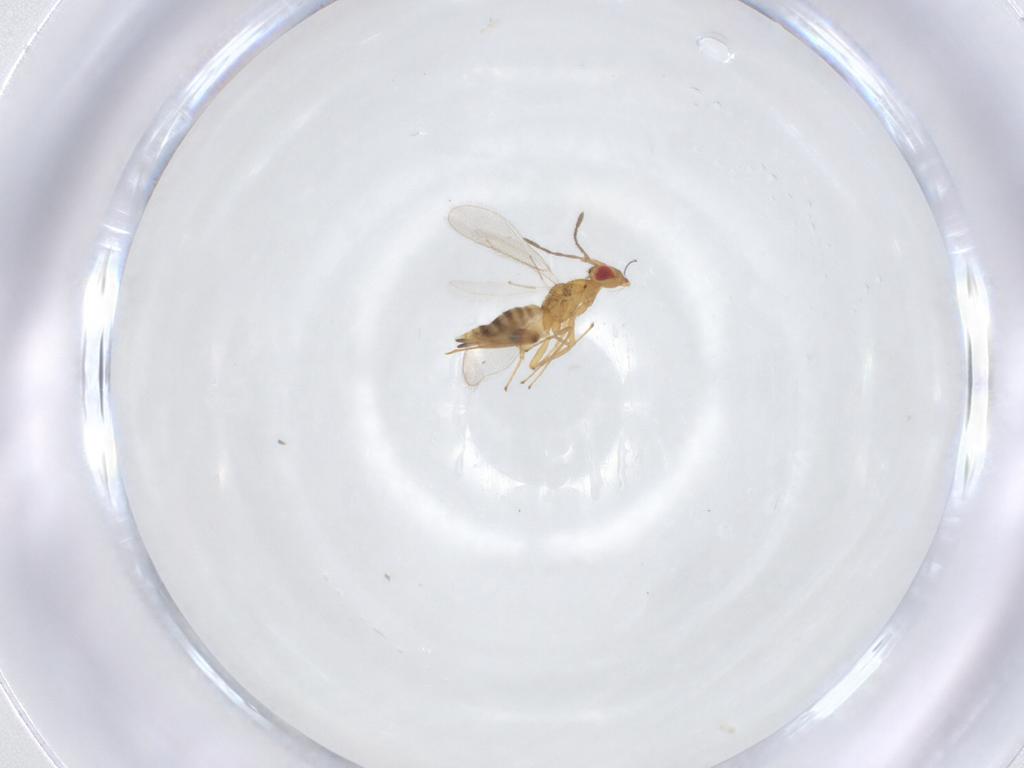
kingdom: Animalia
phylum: Arthropoda
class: Insecta
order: Hymenoptera
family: Eulophidae
